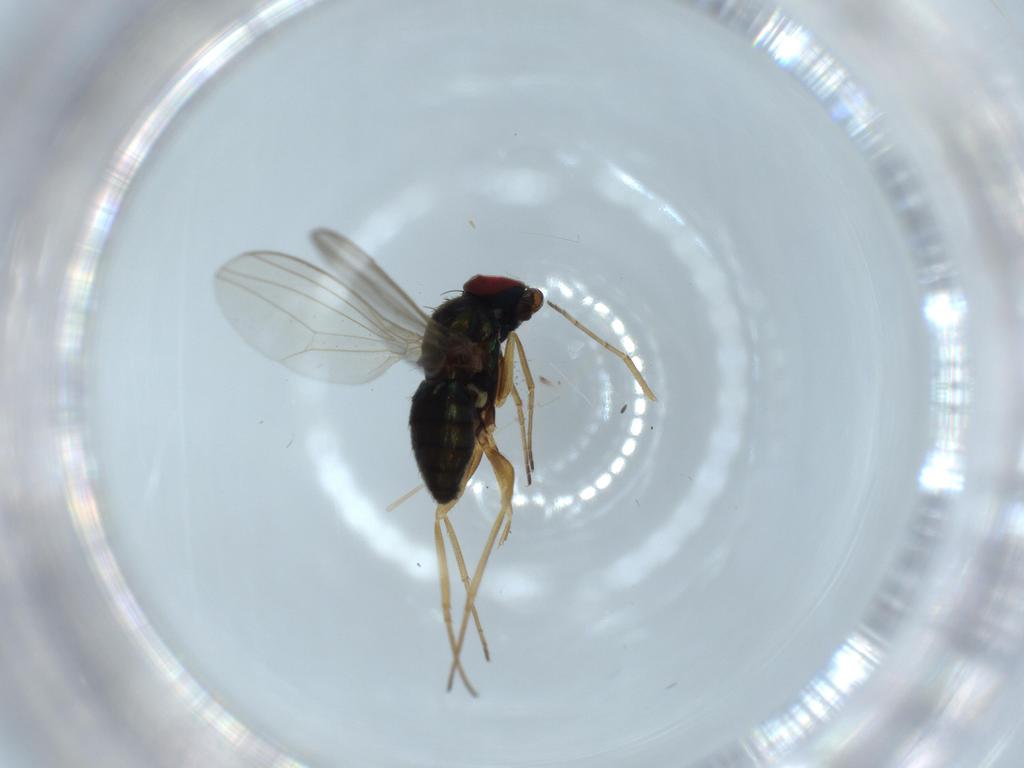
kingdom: Animalia
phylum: Arthropoda
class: Insecta
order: Diptera
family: Dolichopodidae
